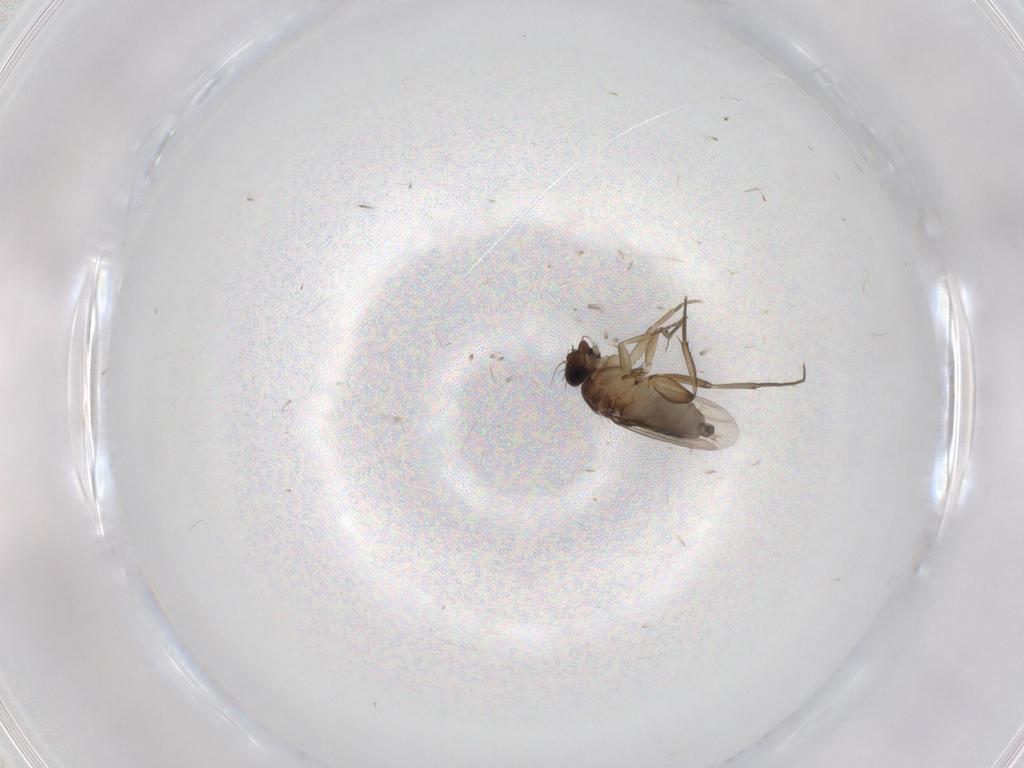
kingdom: Animalia
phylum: Arthropoda
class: Insecta
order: Diptera
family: Phoridae
